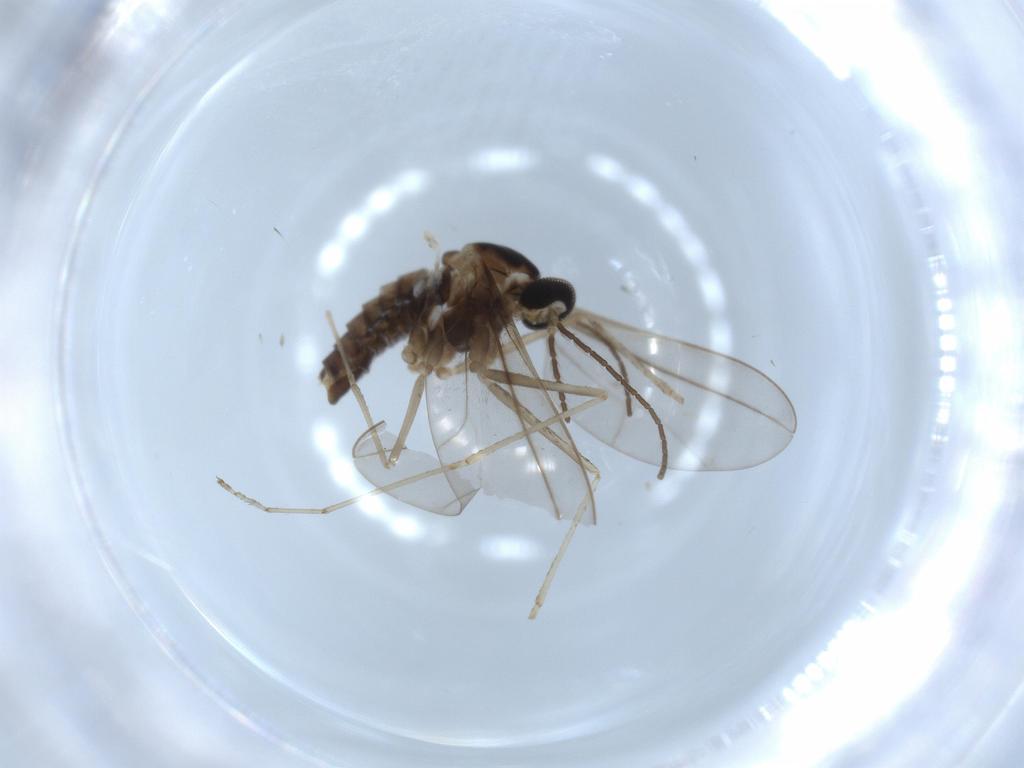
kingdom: Animalia
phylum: Arthropoda
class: Insecta
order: Diptera
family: Cecidomyiidae
